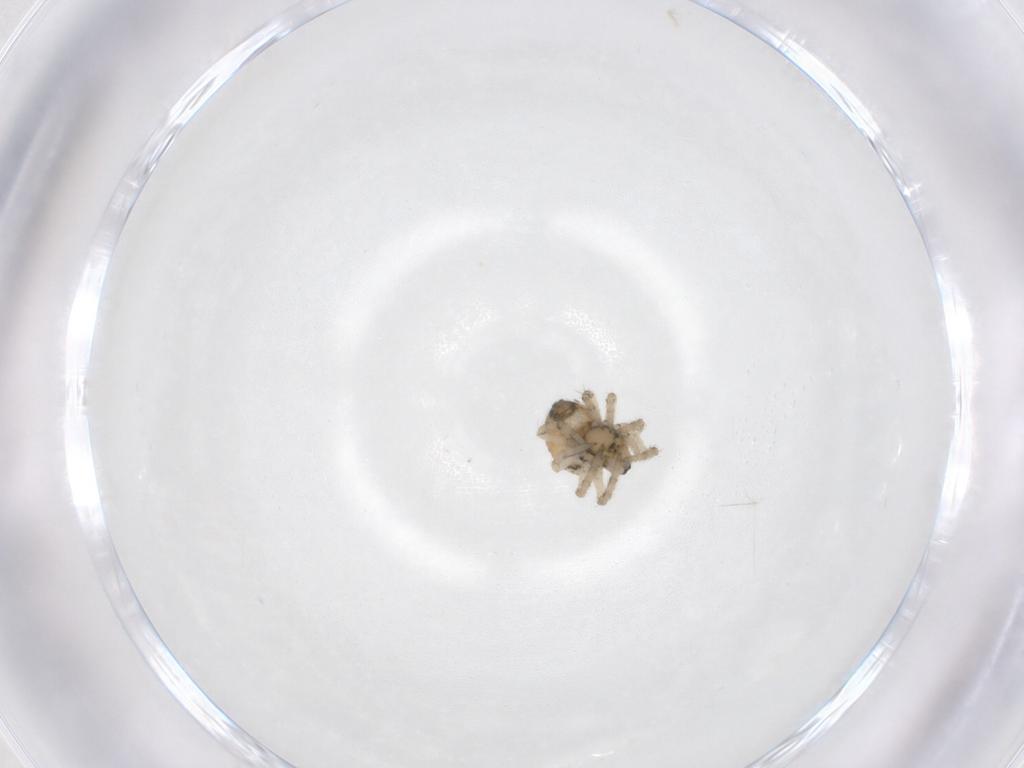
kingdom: Animalia
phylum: Arthropoda
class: Arachnida
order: Araneae
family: Theridiidae
